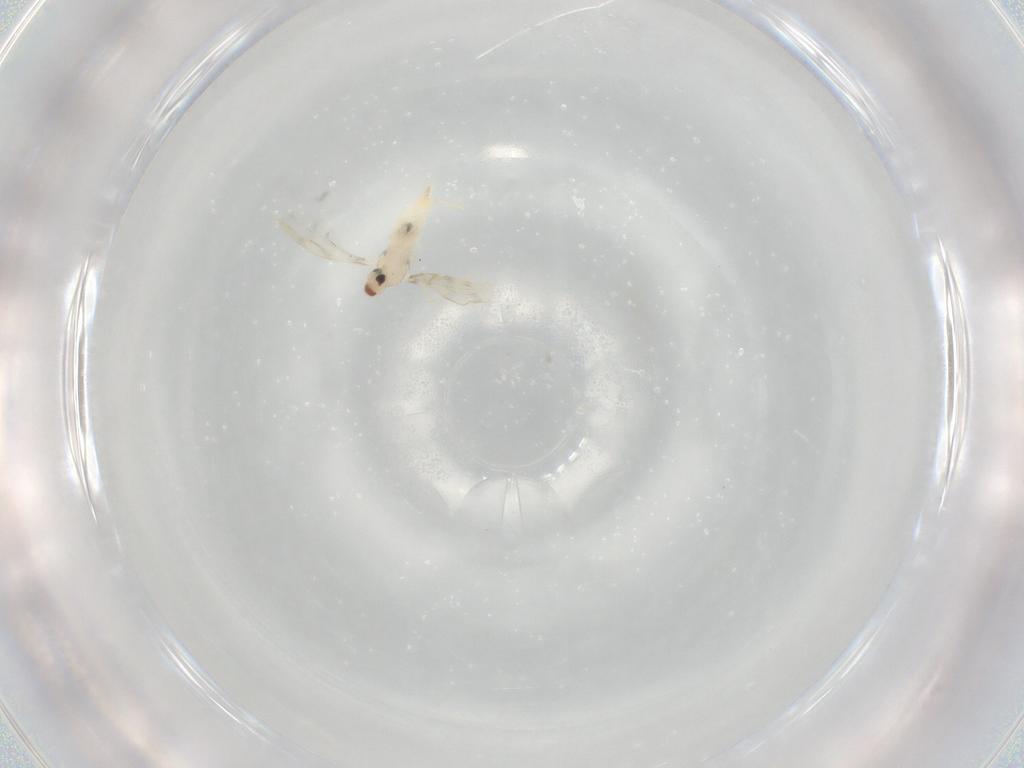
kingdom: Animalia
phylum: Arthropoda
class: Insecta
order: Diptera
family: Cecidomyiidae
